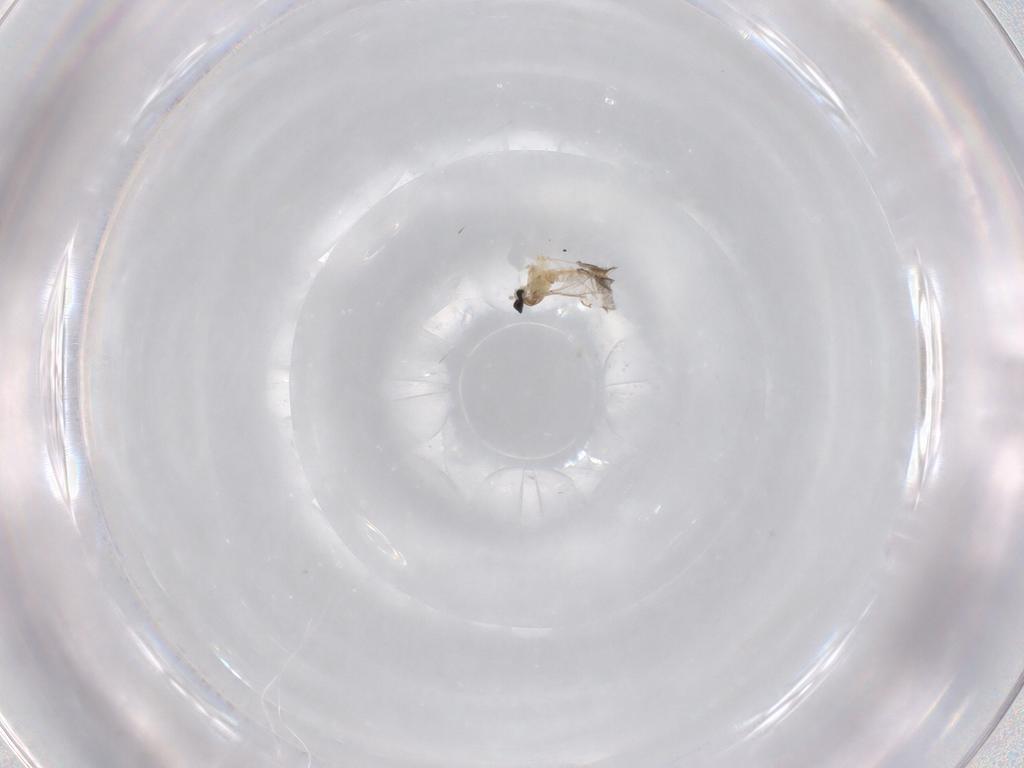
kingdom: Animalia
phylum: Arthropoda
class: Insecta
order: Diptera
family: Cecidomyiidae
